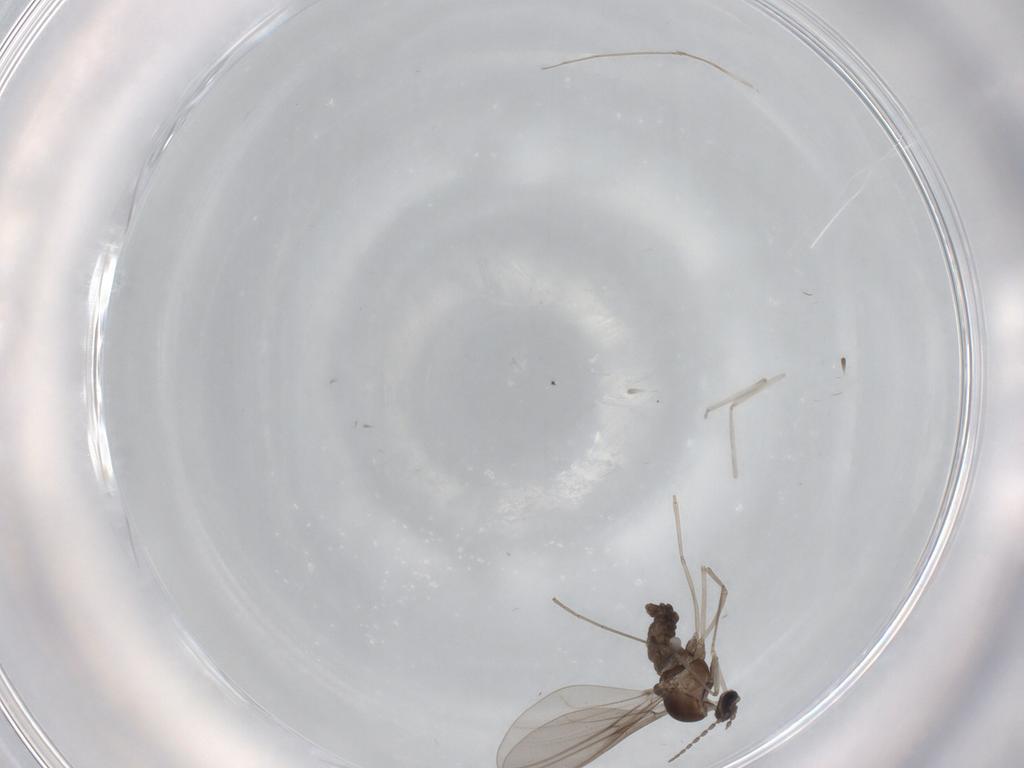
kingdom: Animalia
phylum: Arthropoda
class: Insecta
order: Diptera
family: Cecidomyiidae
